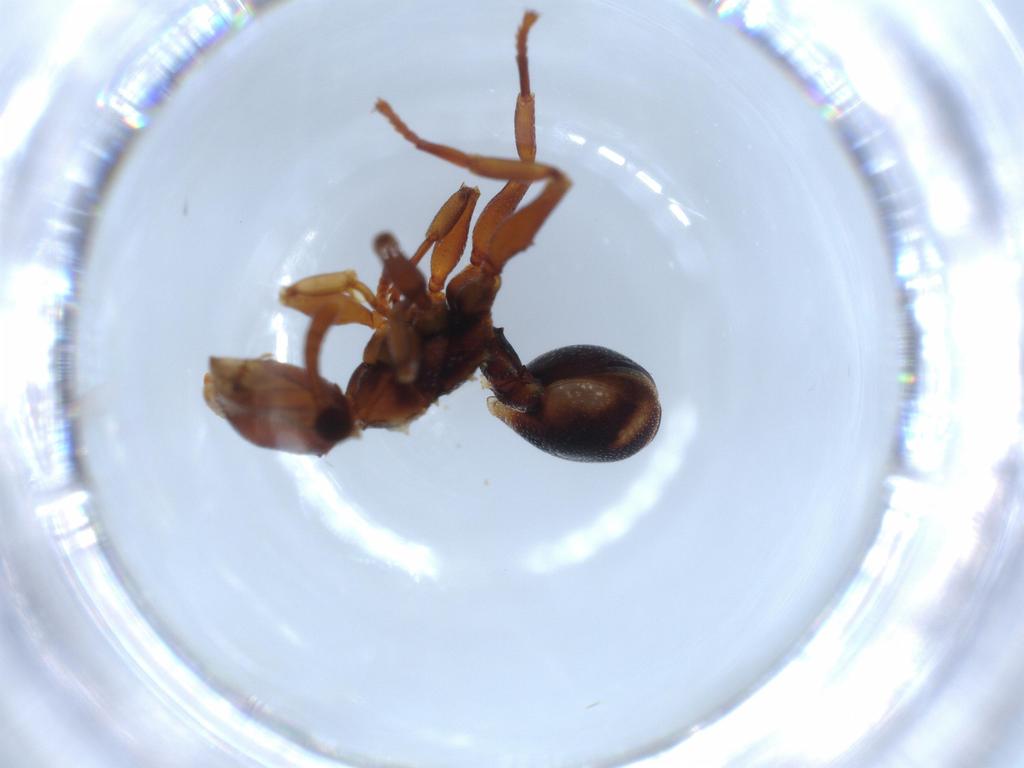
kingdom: Animalia
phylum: Arthropoda
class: Insecta
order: Hymenoptera
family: Formicidae
